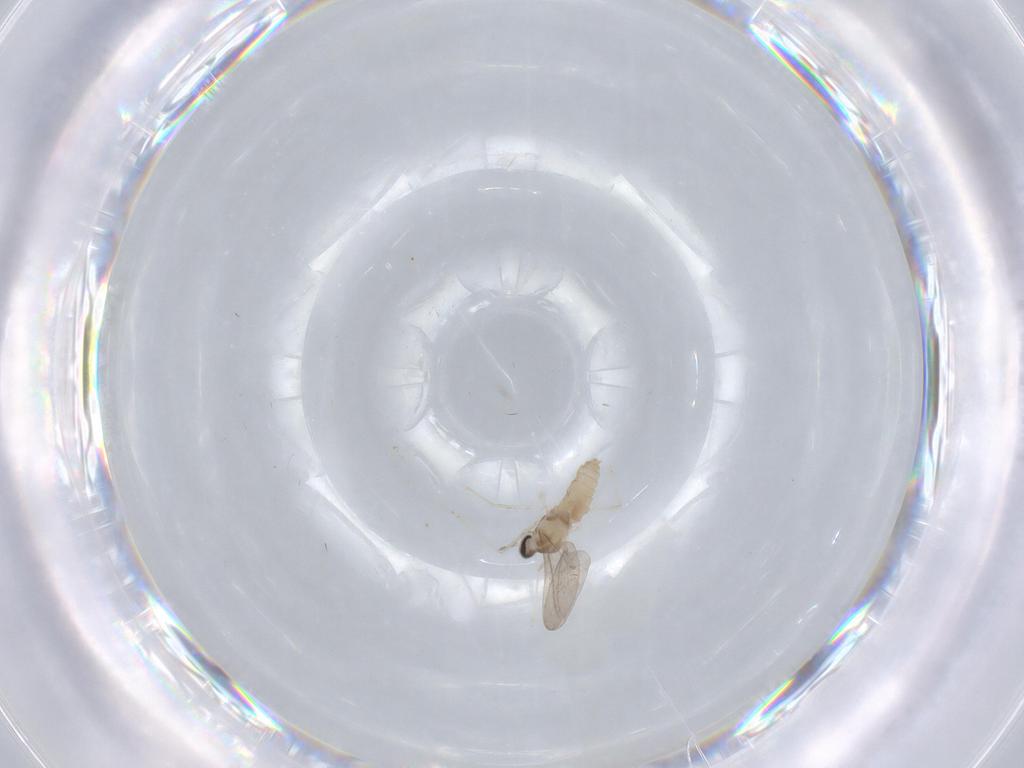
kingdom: Animalia
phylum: Arthropoda
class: Insecta
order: Diptera
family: Cecidomyiidae
